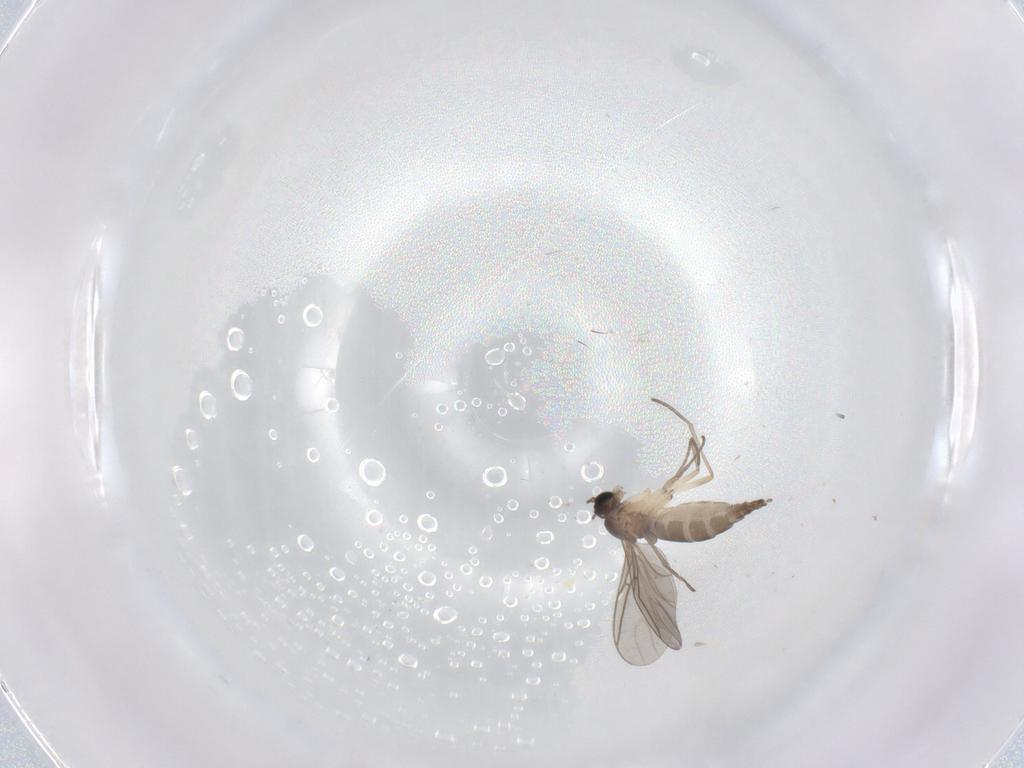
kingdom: Animalia
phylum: Arthropoda
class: Insecta
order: Diptera
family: Sciaridae
